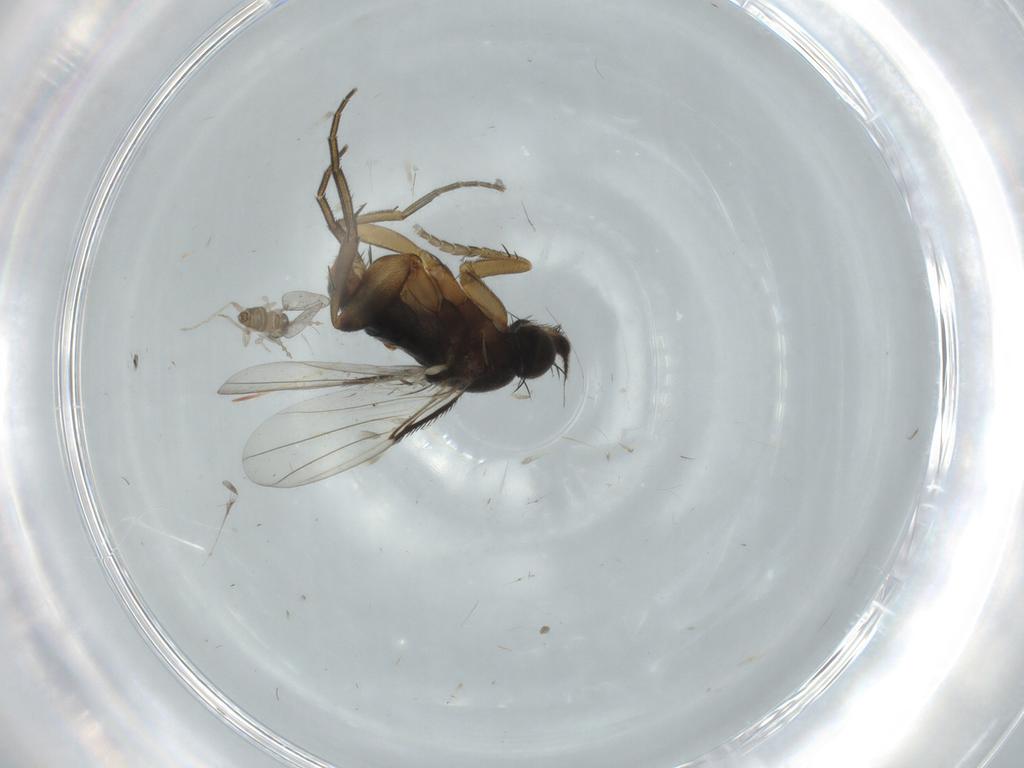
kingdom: Animalia
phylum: Arthropoda
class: Insecta
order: Diptera
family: Phoridae
